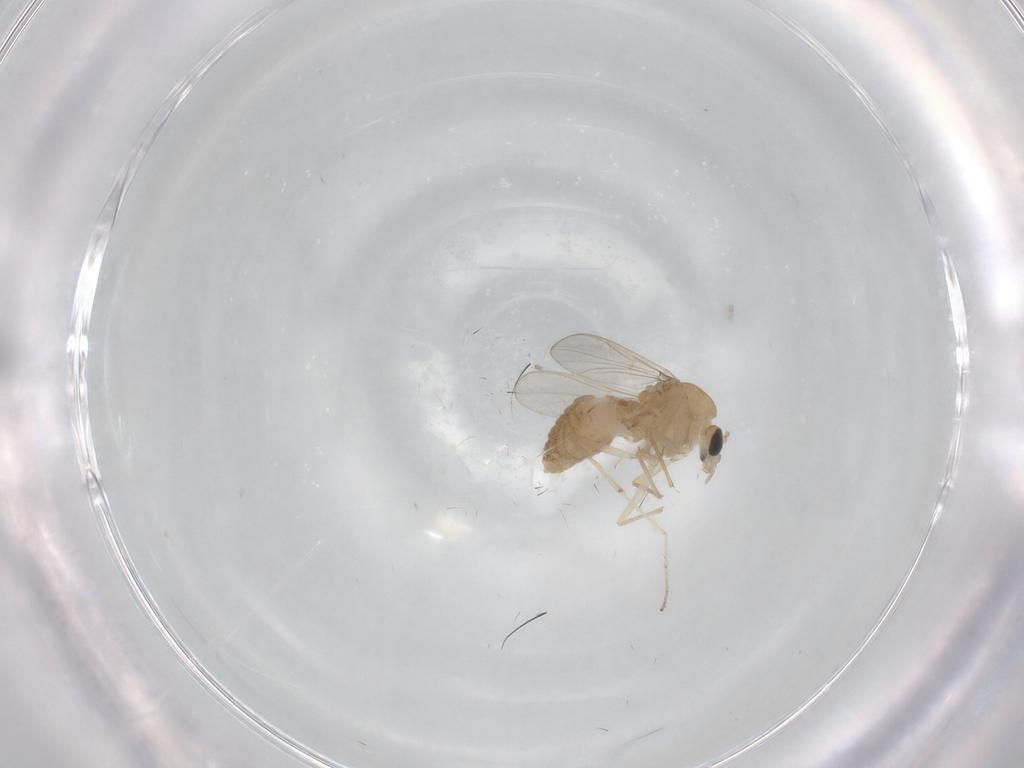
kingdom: Animalia
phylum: Arthropoda
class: Insecta
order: Diptera
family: Chironomidae
